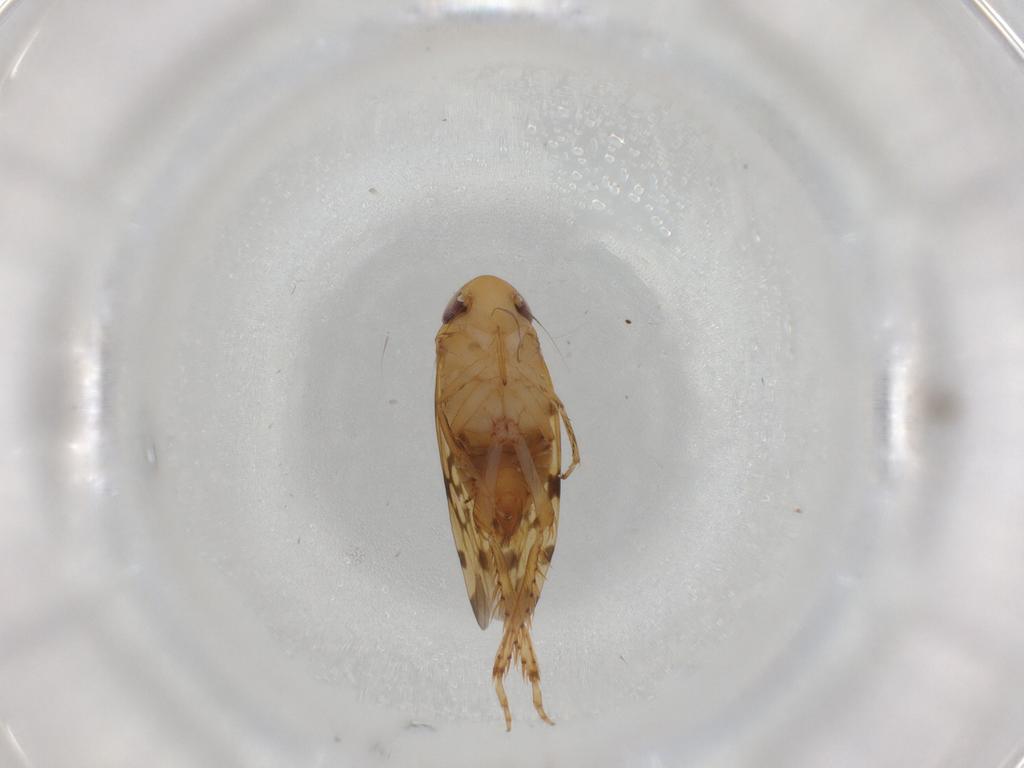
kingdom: Animalia
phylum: Arthropoda
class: Insecta
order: Hemiptera
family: Cicadellidae
